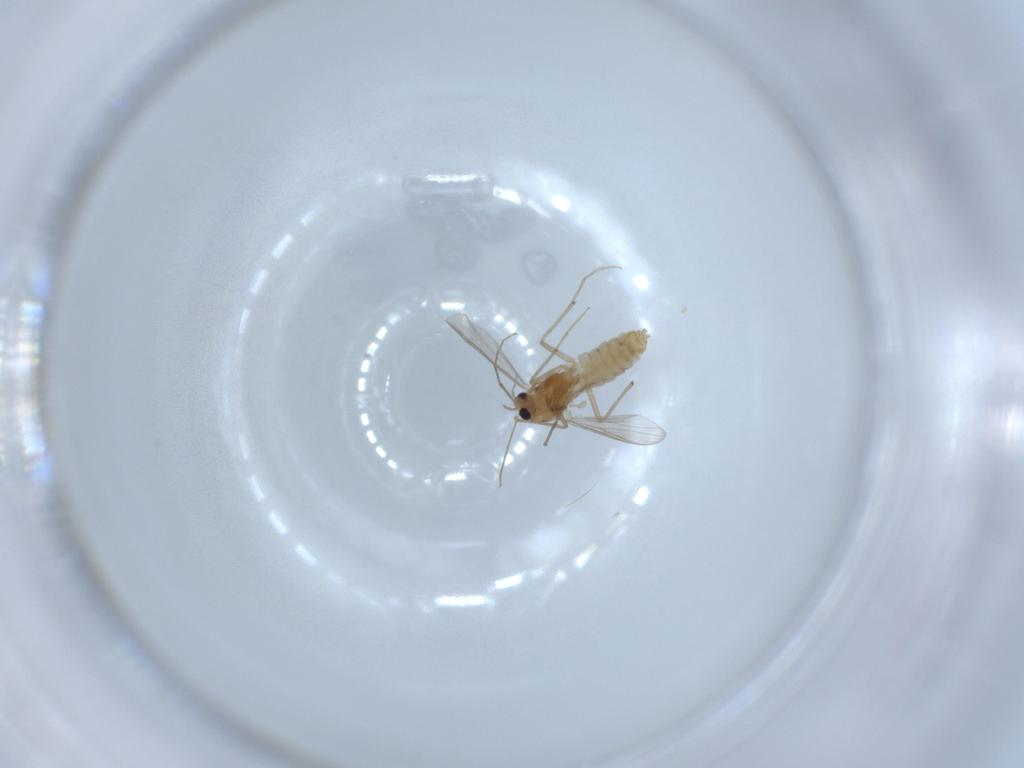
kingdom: Animalia
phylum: Arthropoda
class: Insecta
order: Diptera
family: Chironomidae
